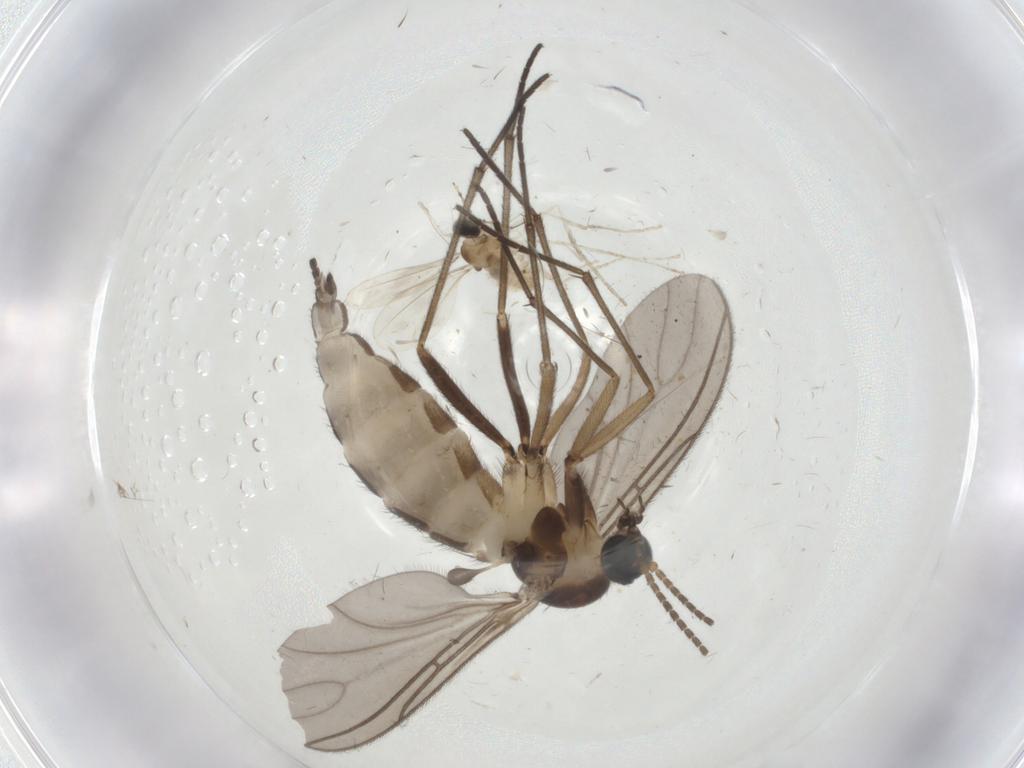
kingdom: Animalia
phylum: Arthropoda
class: Insecta
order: Diptera
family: Sciaridae
